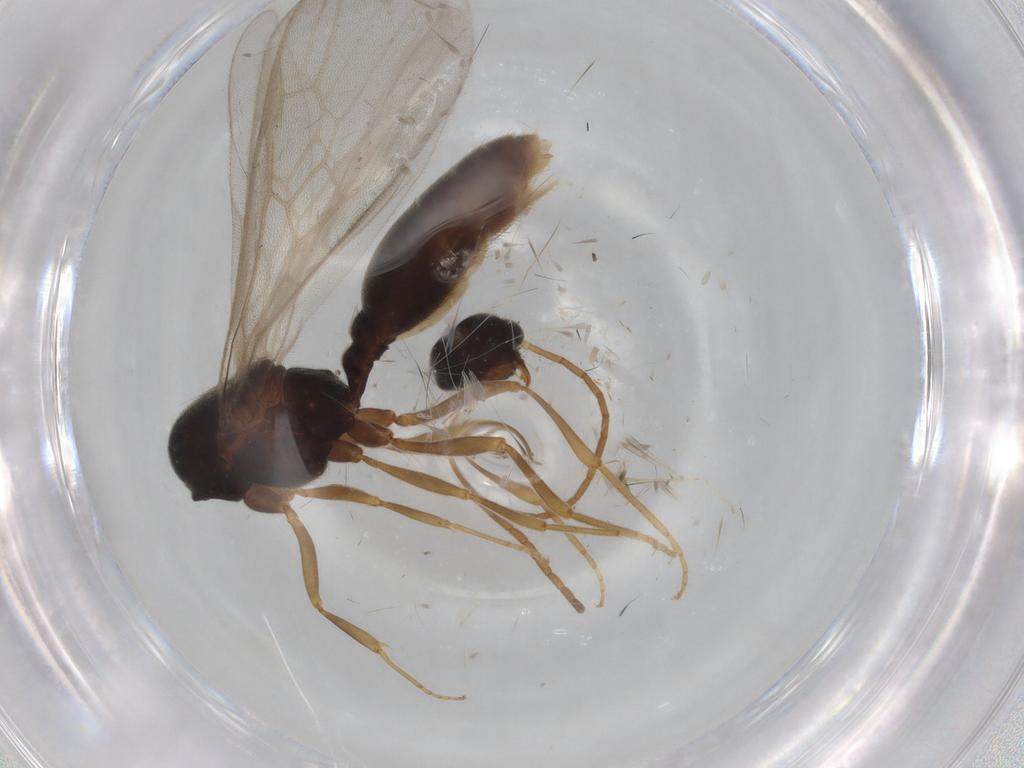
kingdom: Animalia
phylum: Arthropoda
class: Insecta
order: Hymenoptera
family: Formicidae
